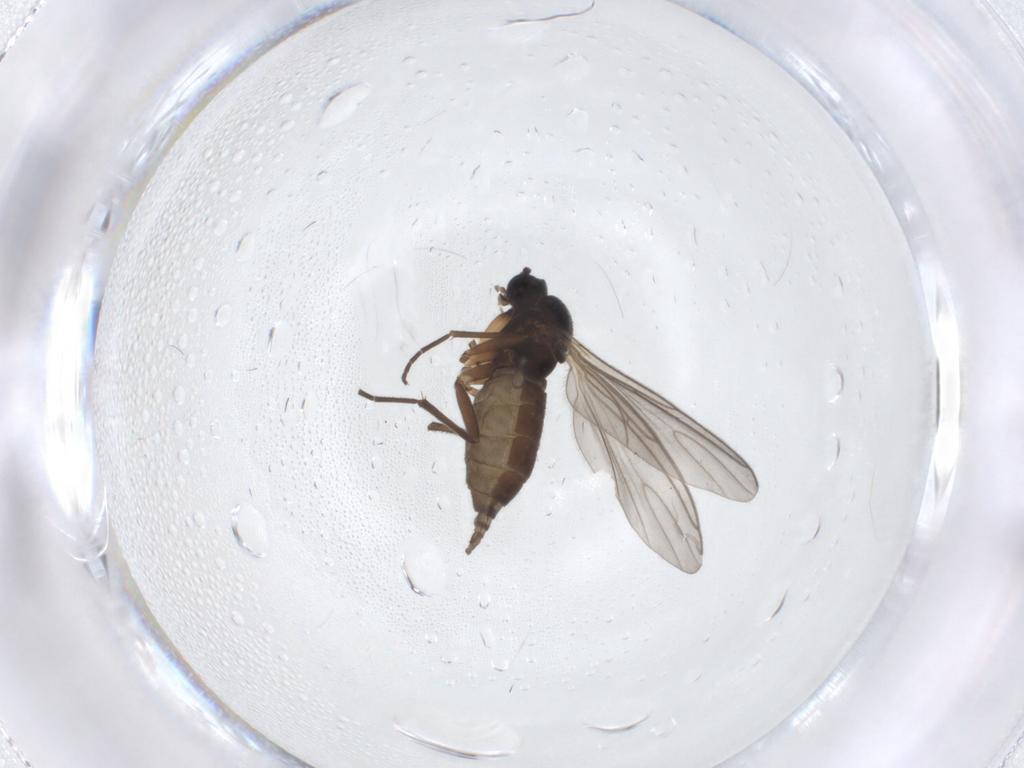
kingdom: Animalia
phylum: Arthropoda
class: Insecta
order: Diptera
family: Sciaridae
